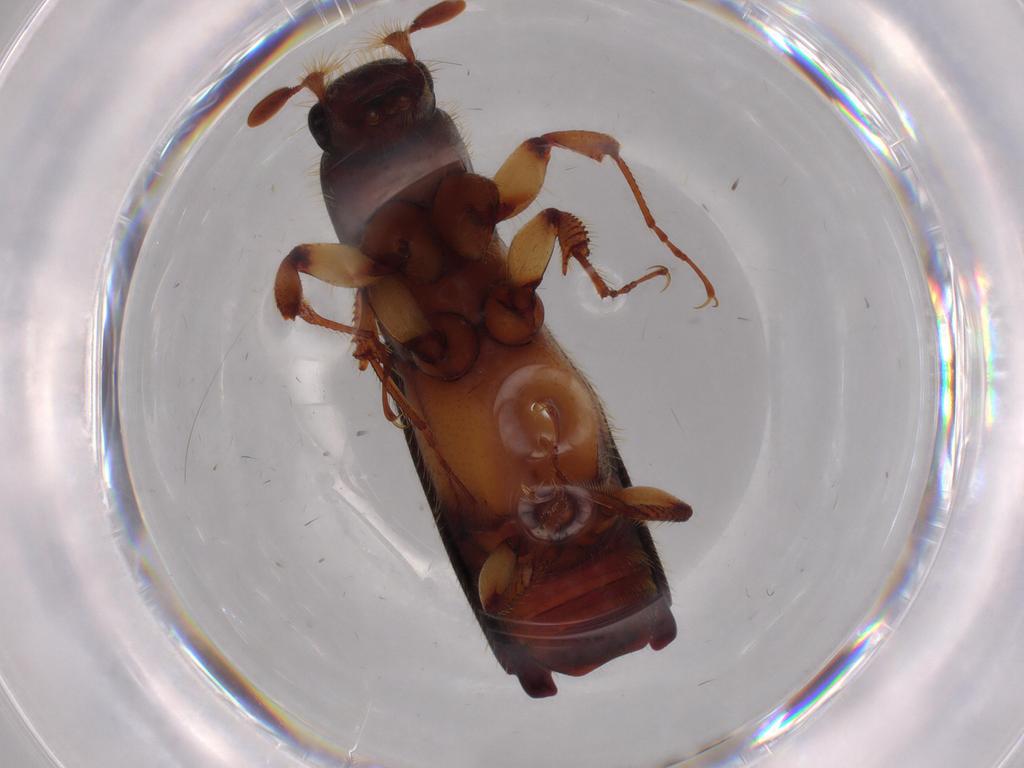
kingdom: Animalia
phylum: Arthropoda
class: Insecta
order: Coleoptera
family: Curculionidae
